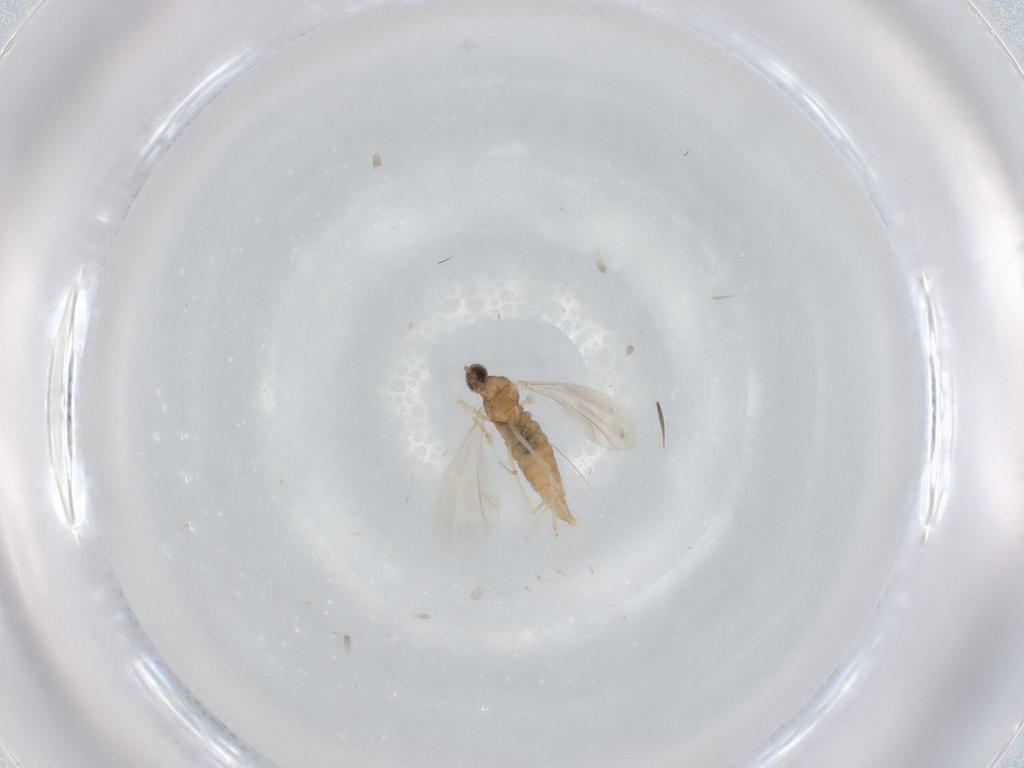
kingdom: Animalia
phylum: Arthropoda
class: Insecta
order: Diptera
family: Cecidomyiidae
